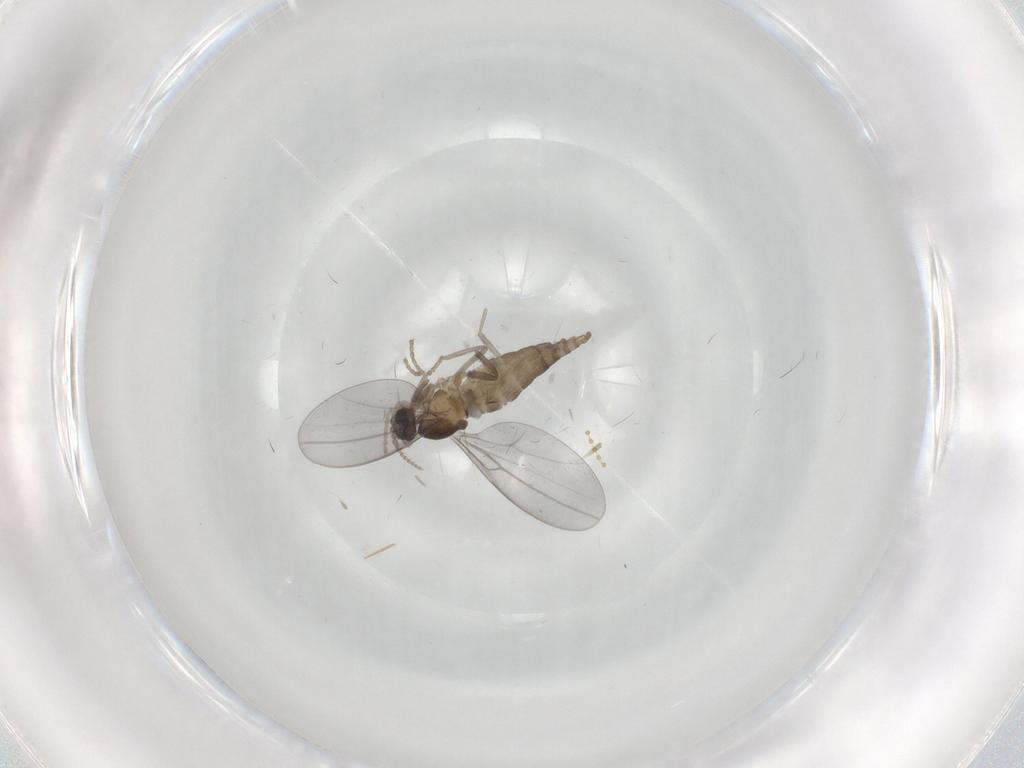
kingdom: Animalia
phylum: Arthropoda
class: Insecta
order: Diptera
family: Cecidomyiidae
